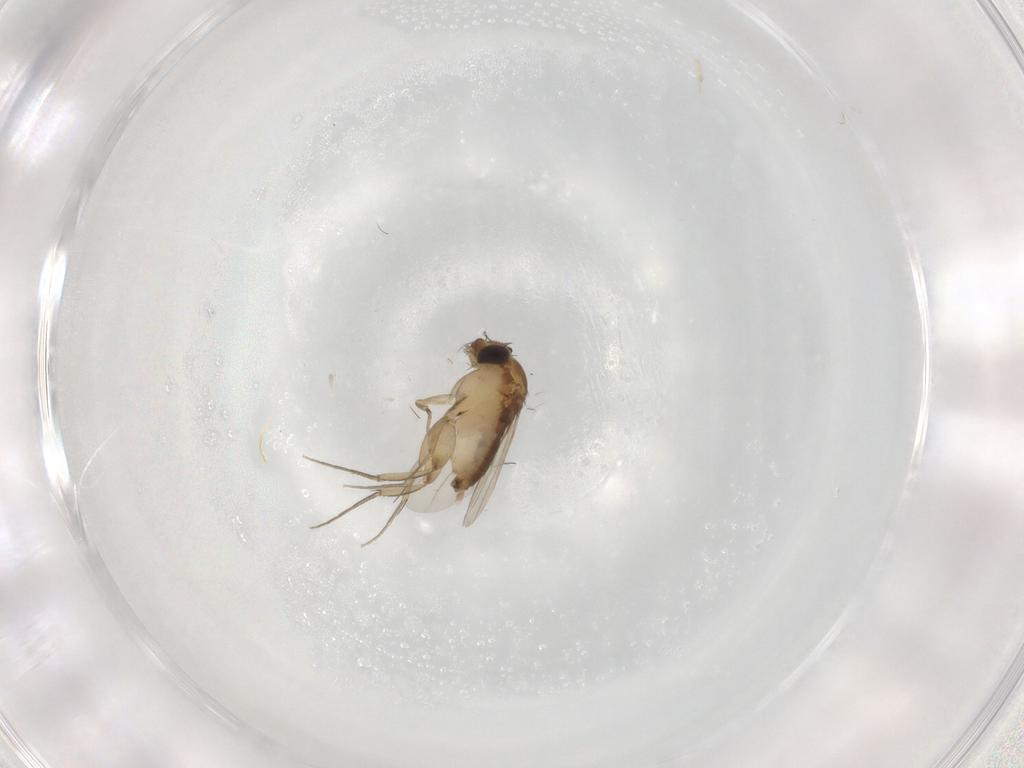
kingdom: Animalia
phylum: Arthropoda
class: Insecta
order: Diptera
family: Phoridae
